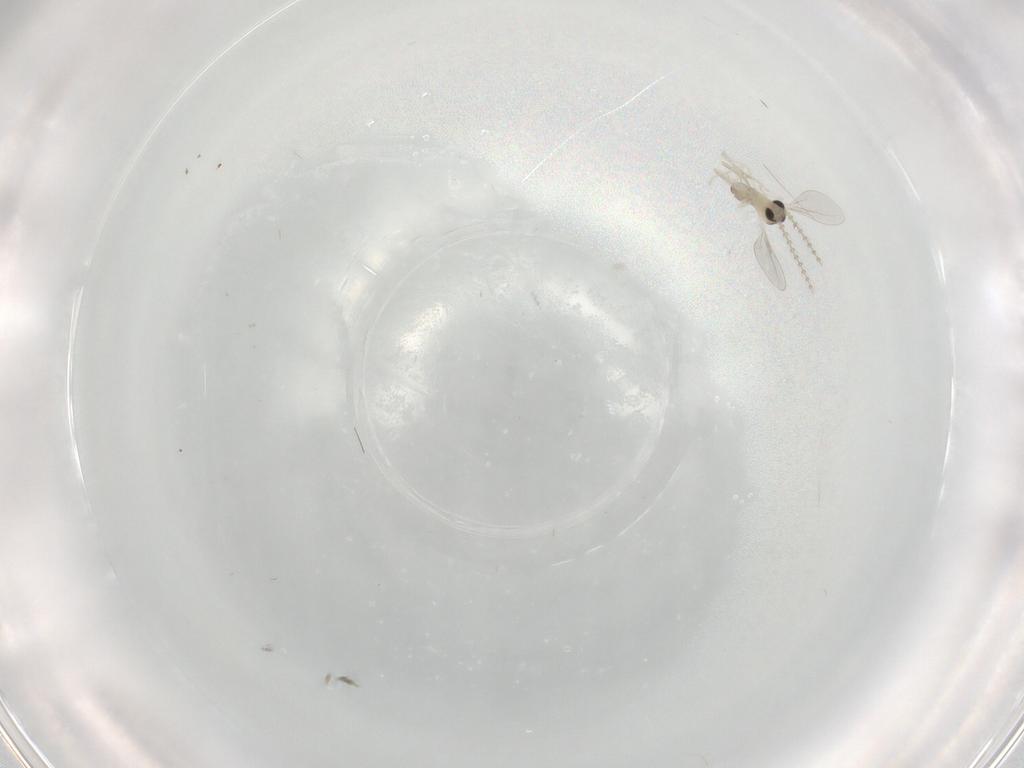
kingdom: Animalia
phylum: Arthropoda
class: Insecta
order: Diptera
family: Cecidomyiidae
